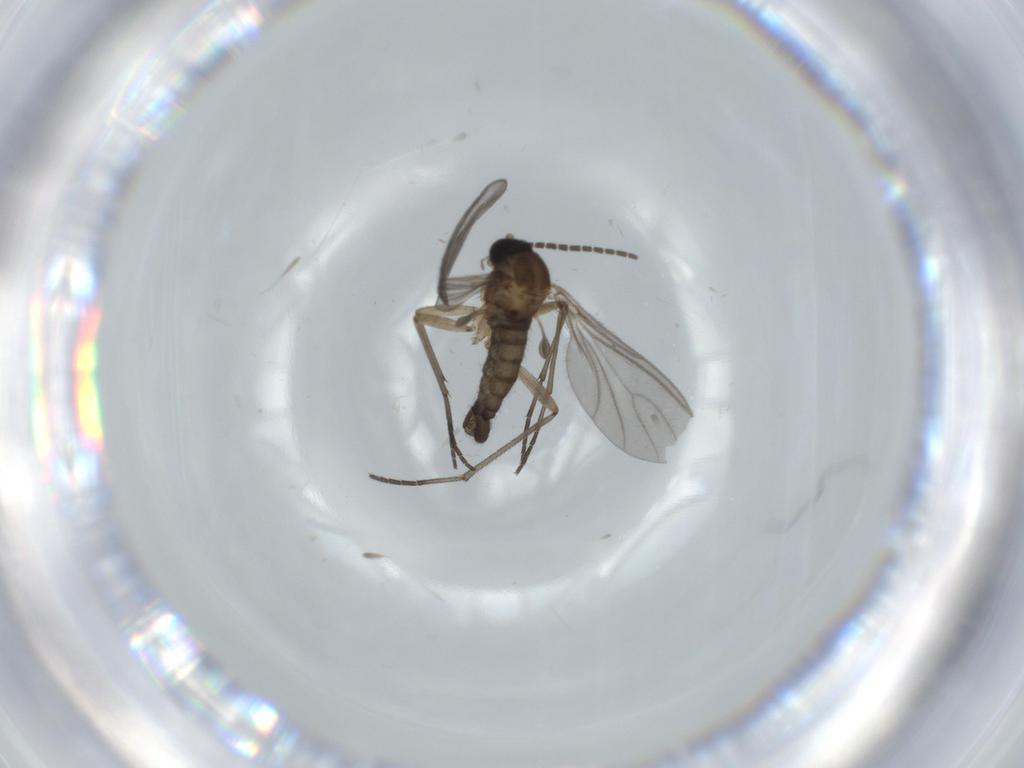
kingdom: Animalia
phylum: Arthropoda
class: Insecta
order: Diptera
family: Sciaridae
